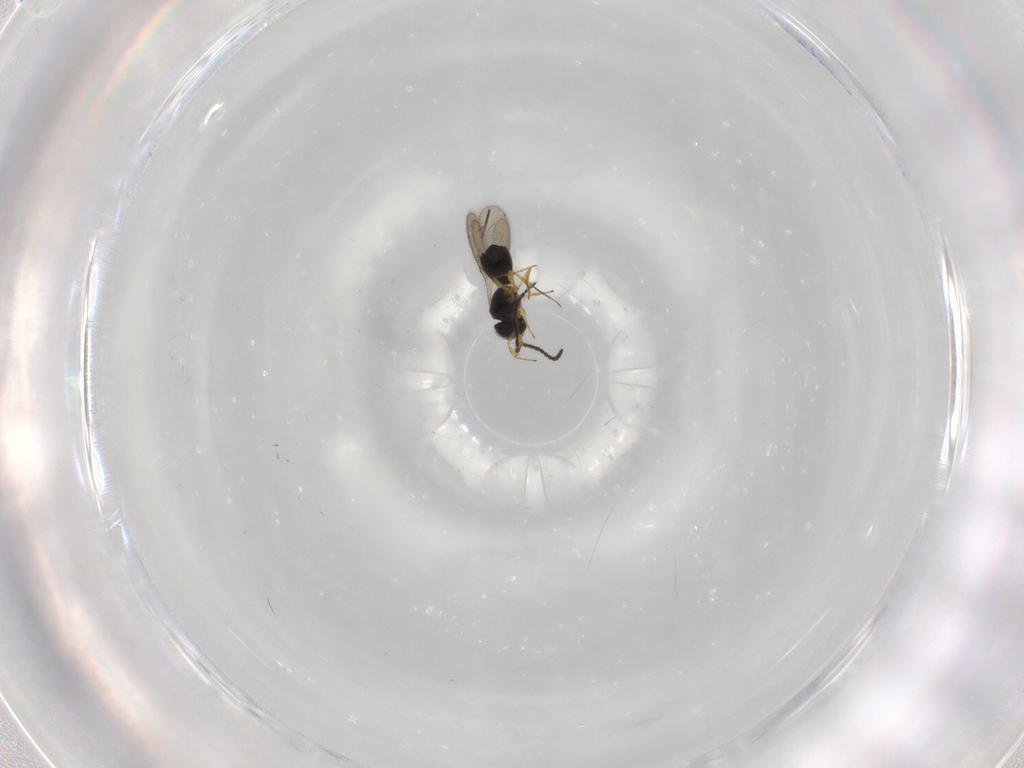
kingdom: Animalia
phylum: Arthropoda
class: Insecta
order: Hymenoptera
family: Scelionidae
